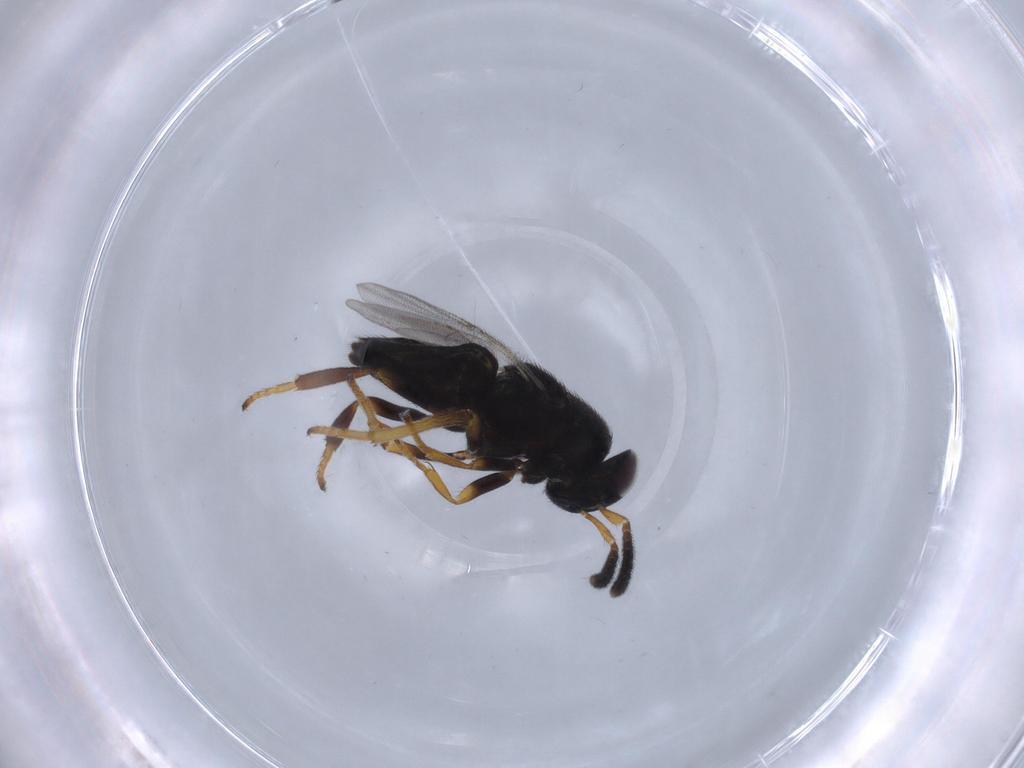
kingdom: Animalia
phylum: Arthropoda
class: Insecta
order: Hymenoptera
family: Encyrtidae
